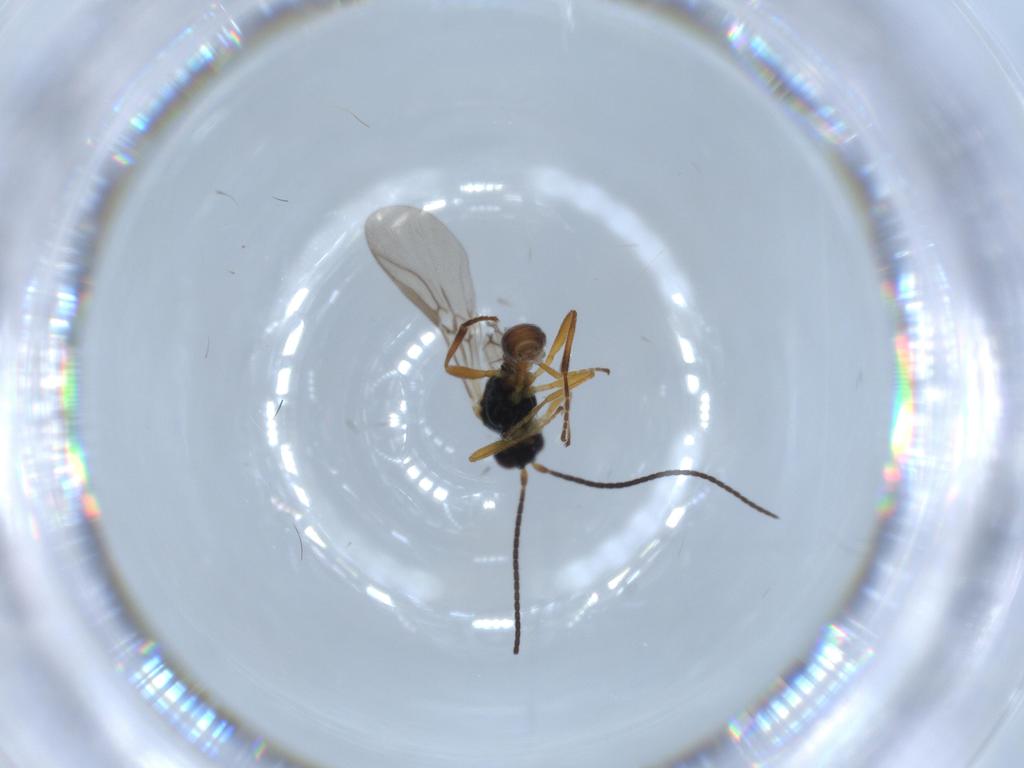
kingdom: Animalia
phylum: Arthropoda
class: Insecta
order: Hymenoptera
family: Braconidae
